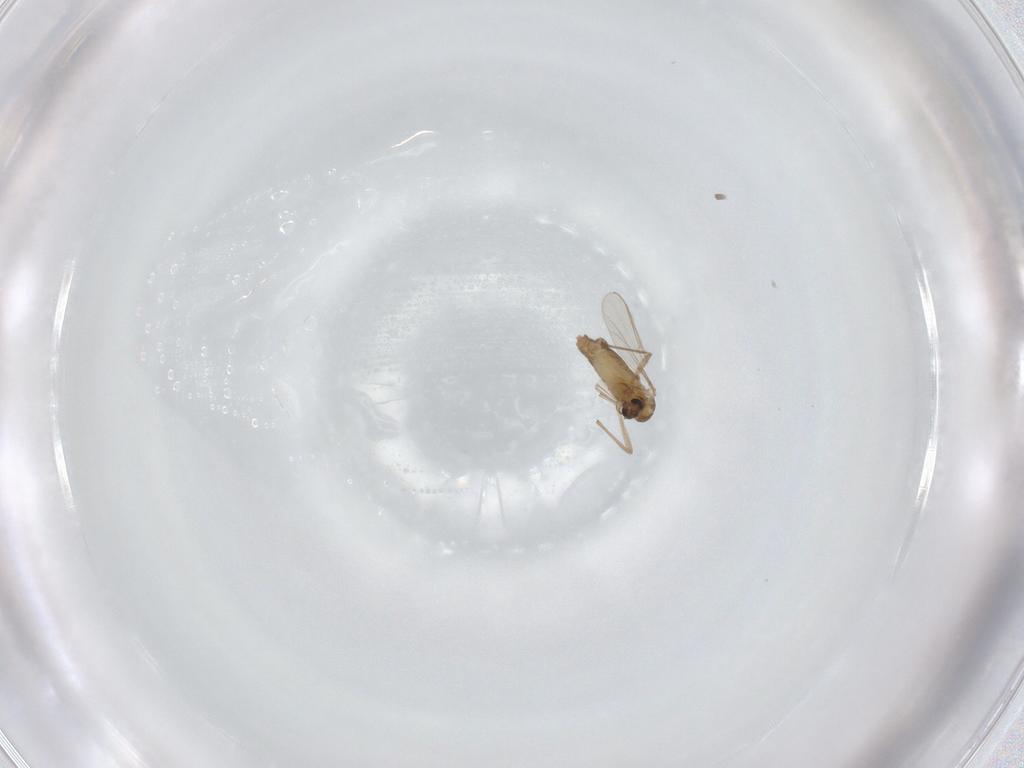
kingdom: Animalia
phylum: Arthropoda
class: Insecta
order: Diptera
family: Chironomidae
